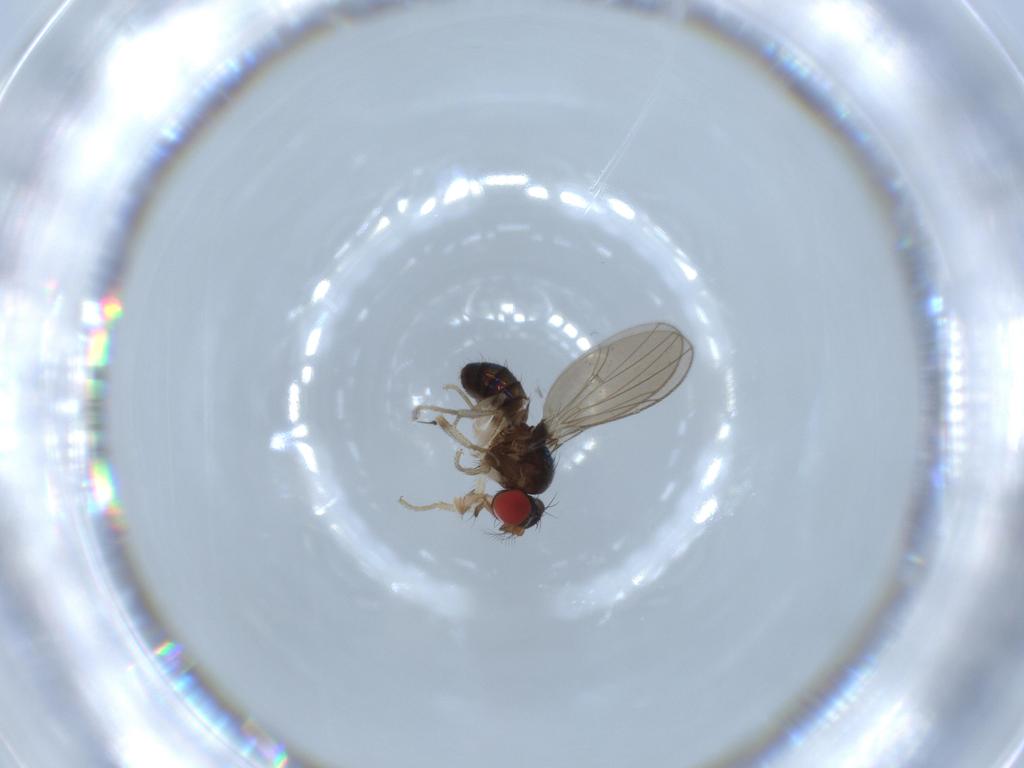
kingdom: Animalia
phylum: Arthropoda
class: Insecta
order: Diptera
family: Drosophilidae
